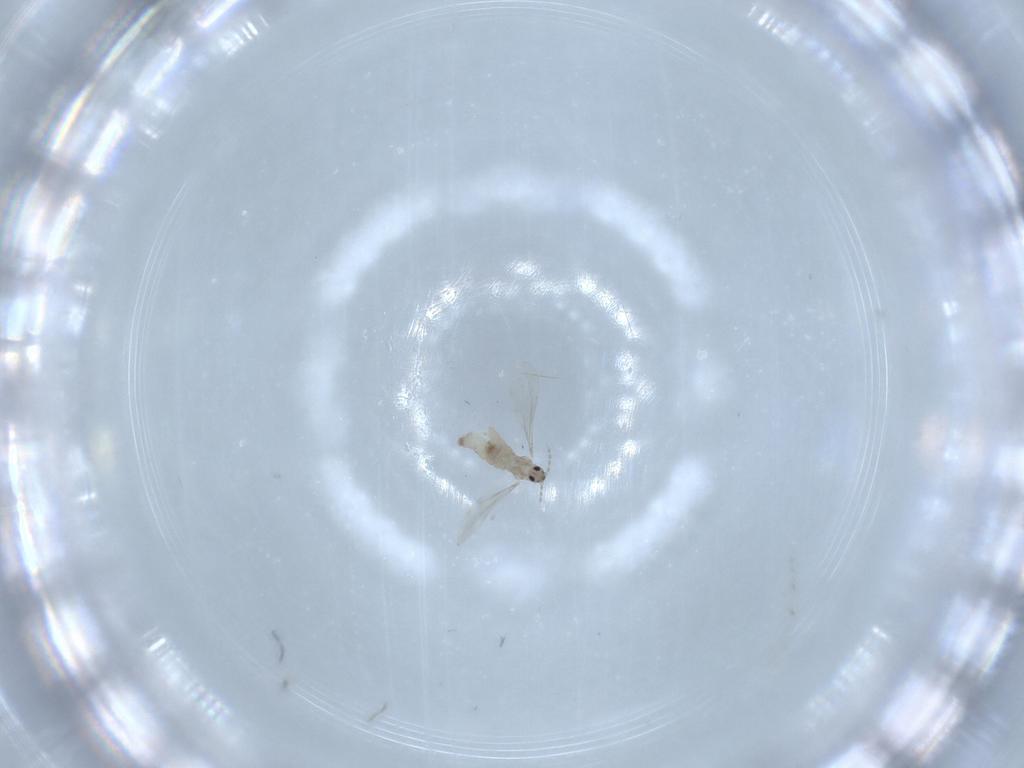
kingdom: Animalia
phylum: Arthropoda
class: Insecta
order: Diptera
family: Cecidomyiidae
